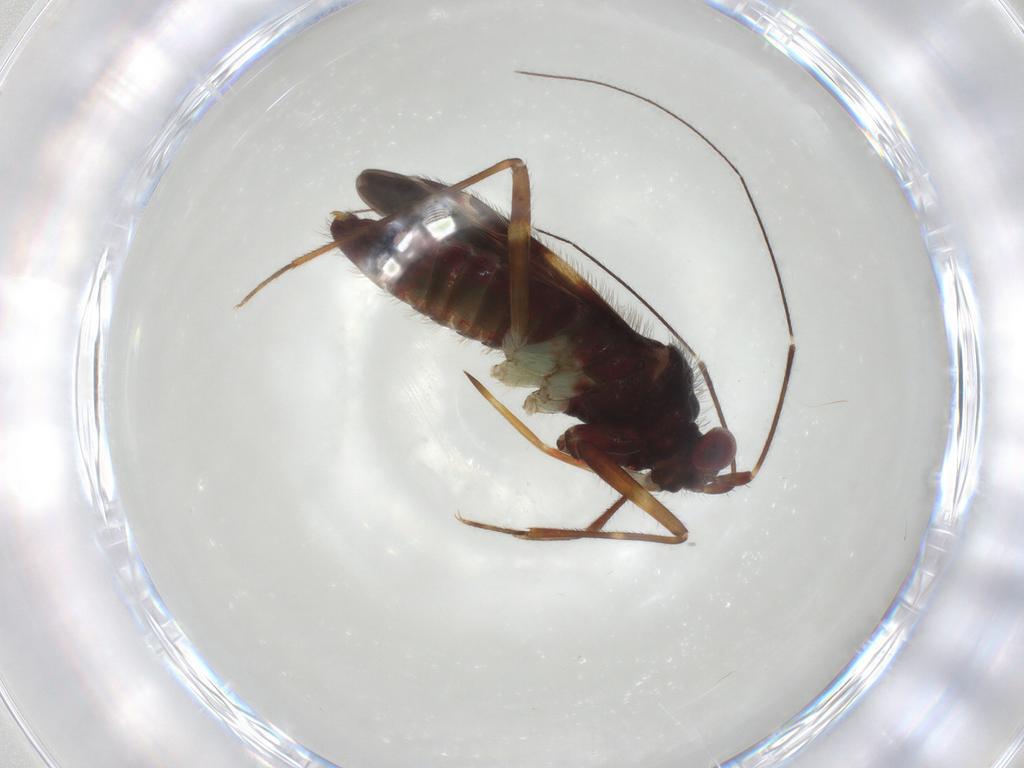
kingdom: Animalia
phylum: Arthropoda
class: Insecta
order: Hemiptera
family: Miridae
